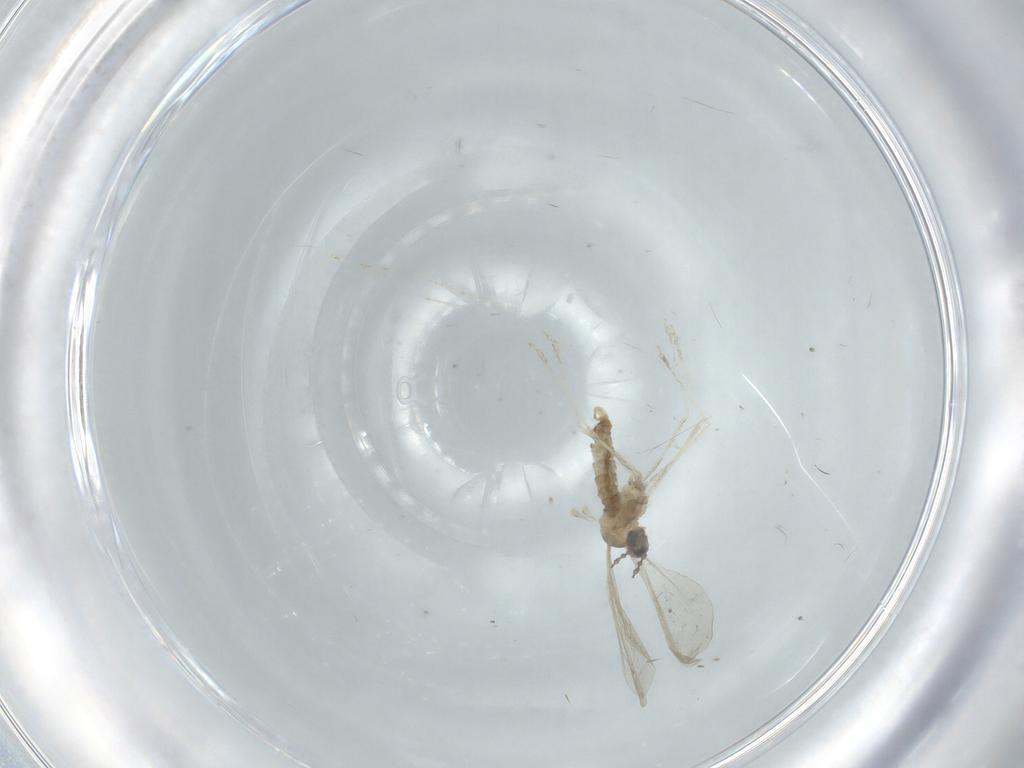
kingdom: Animalia
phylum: Arthropoda
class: Insecta
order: Diptera
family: Cecidomyiidae
